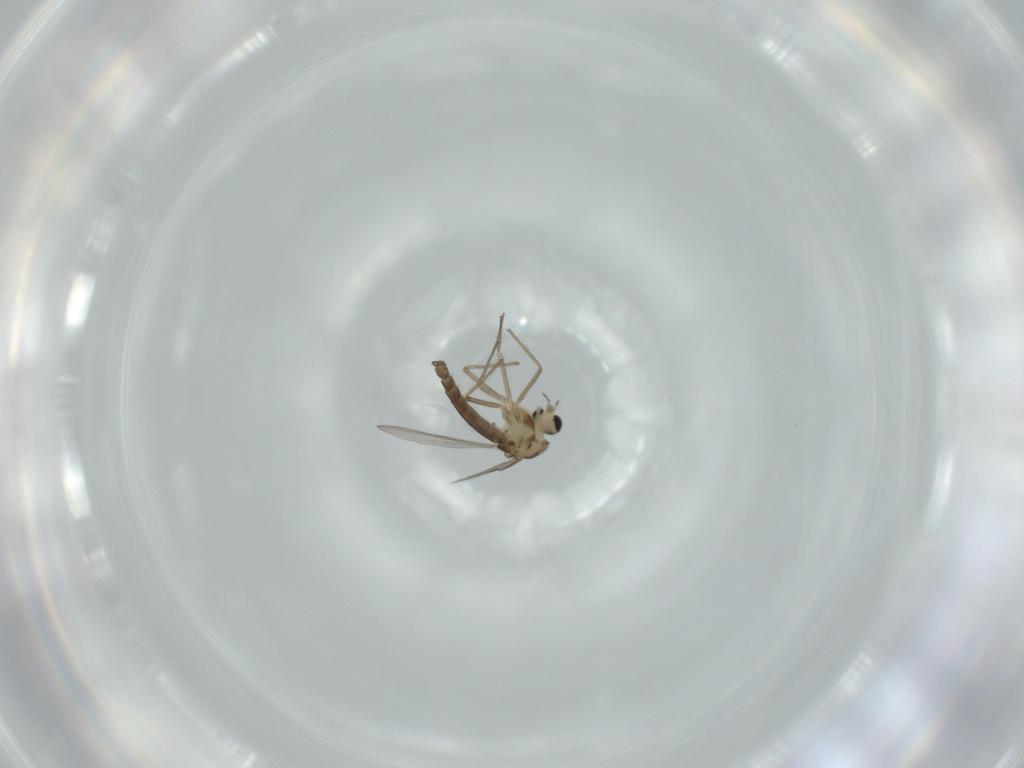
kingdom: Animalia
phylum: Arthropoda
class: Insecta
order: Diptera
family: Chironomidae
